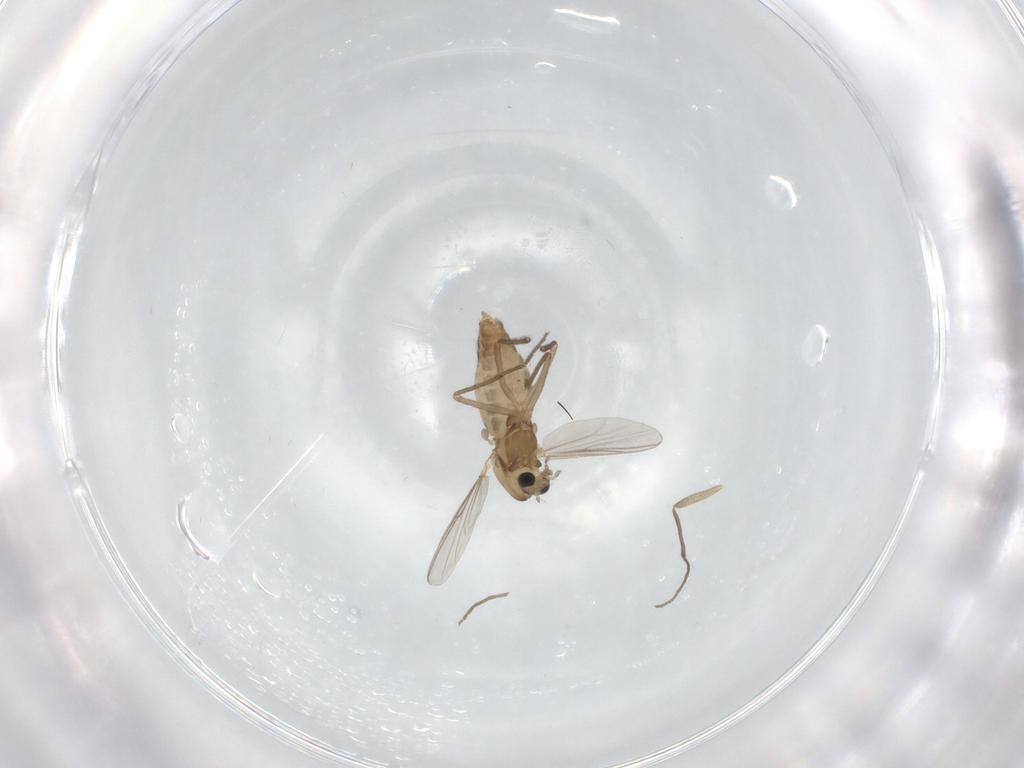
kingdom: Animalia
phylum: Arthropoda
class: Insecta
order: Diptera
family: Chironomidae
